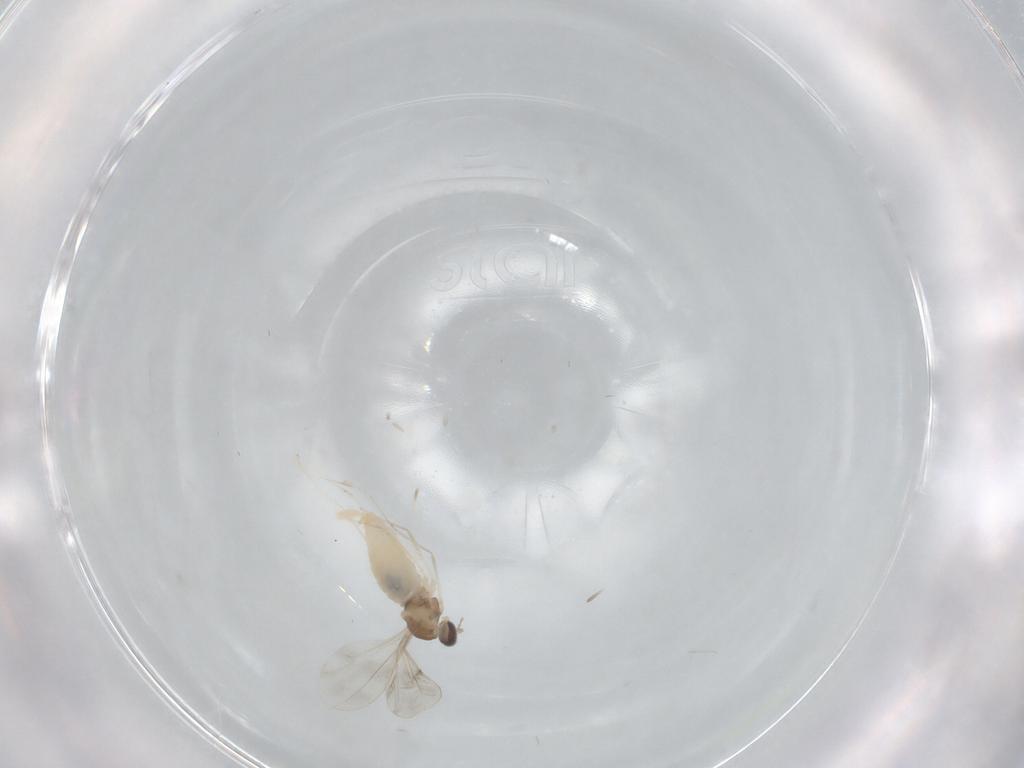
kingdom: Animalia
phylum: Arthropoda
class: Insecta
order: Diptera
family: Cecidomyiidae
